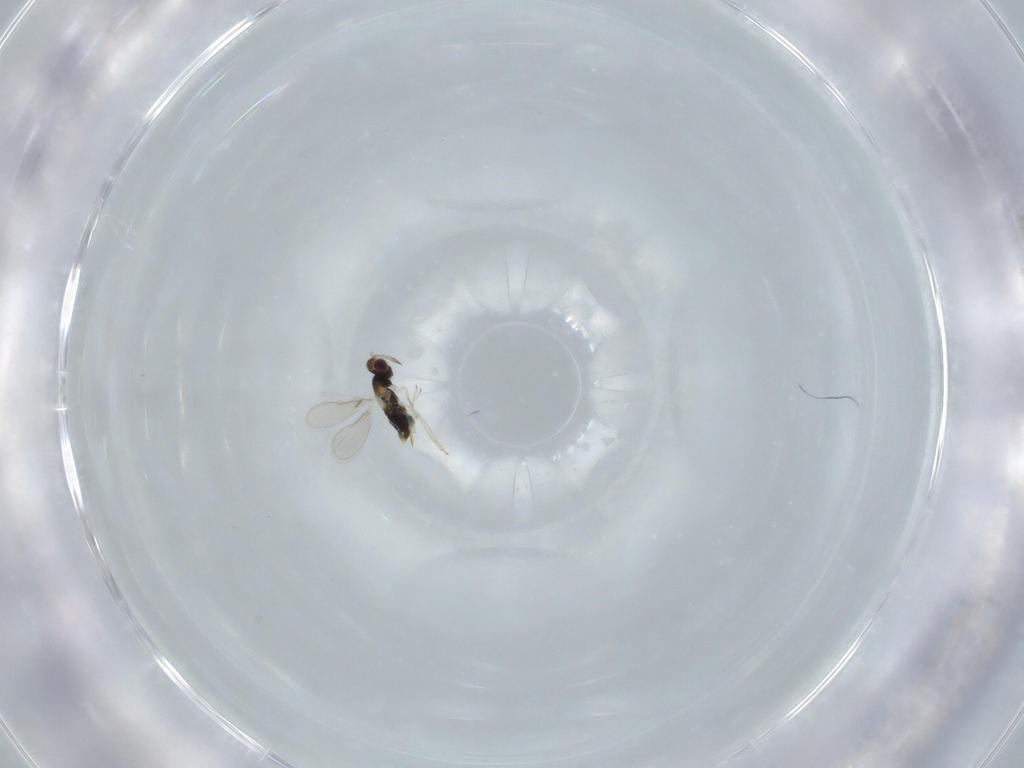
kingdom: Animalia
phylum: Arthropoda
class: Insecta
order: Hymenoptera
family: Aphelinidae
